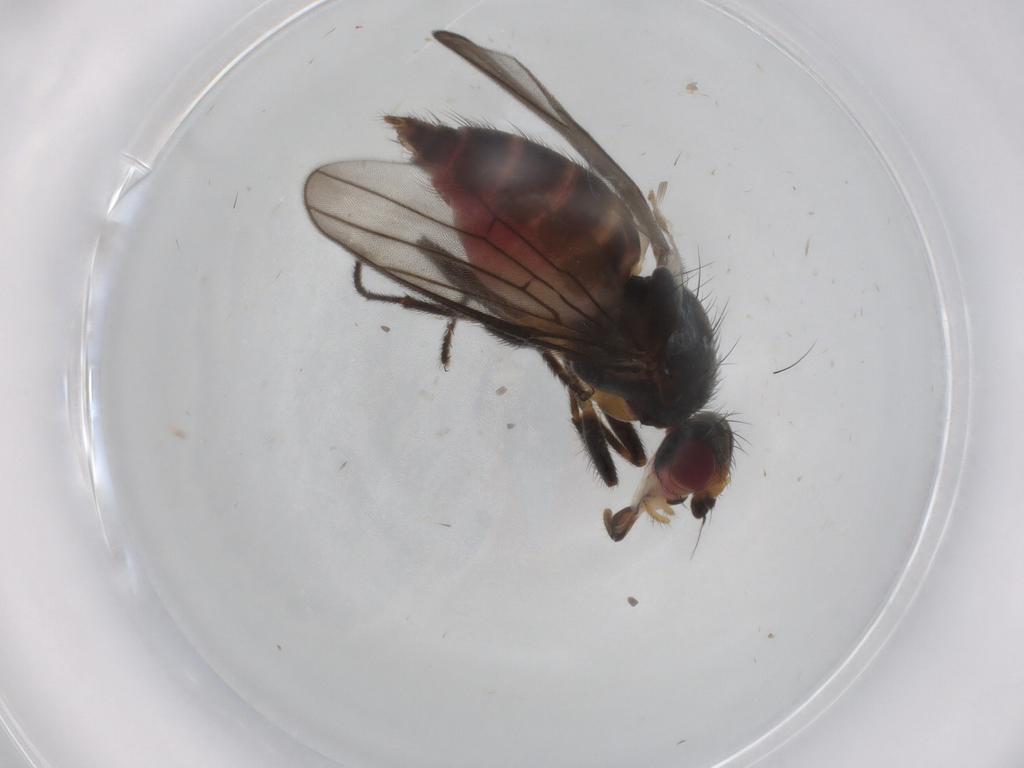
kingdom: Animalia
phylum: Arthropoda
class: Insecta
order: Diptera
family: Chloropidae
